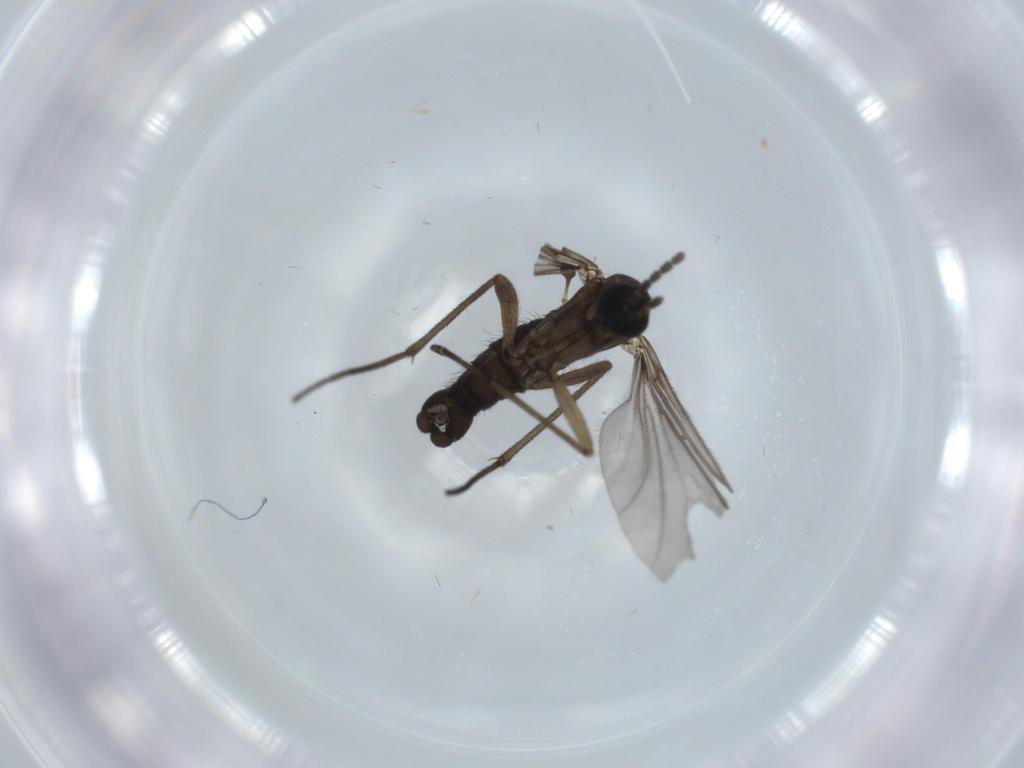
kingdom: Animalia
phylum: Arthropoda
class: Insecta
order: Diptera
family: Sciaridae
